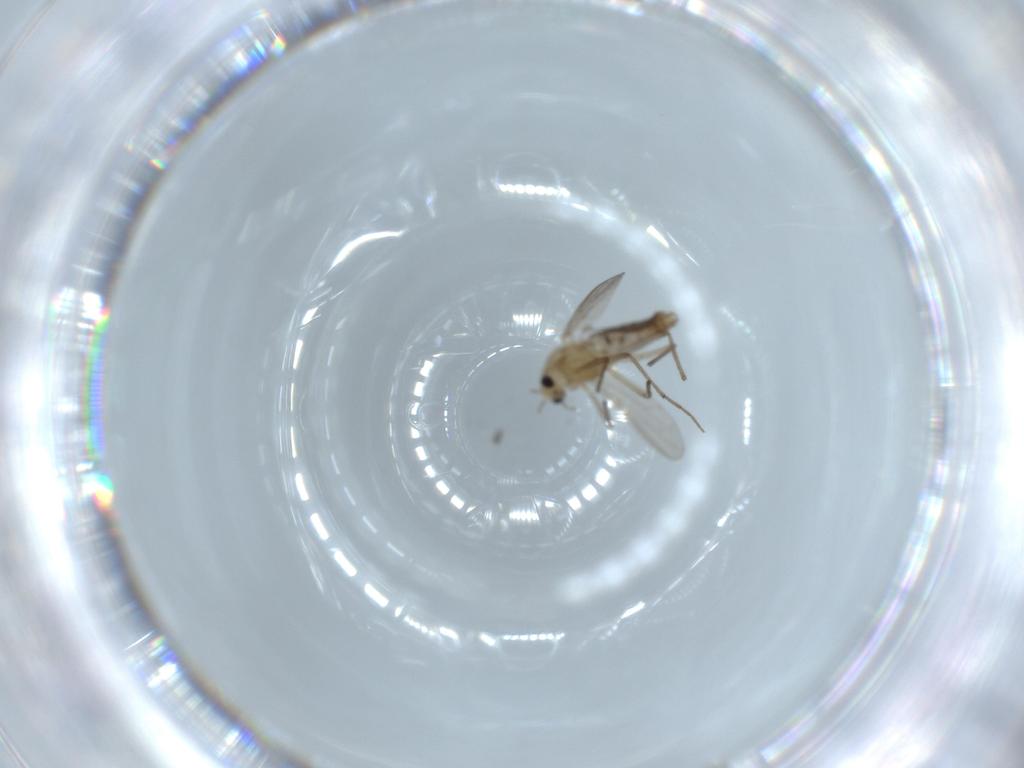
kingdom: Animalia
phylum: Arthropoda
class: Insecta
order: Diptera
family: Chironomidae
